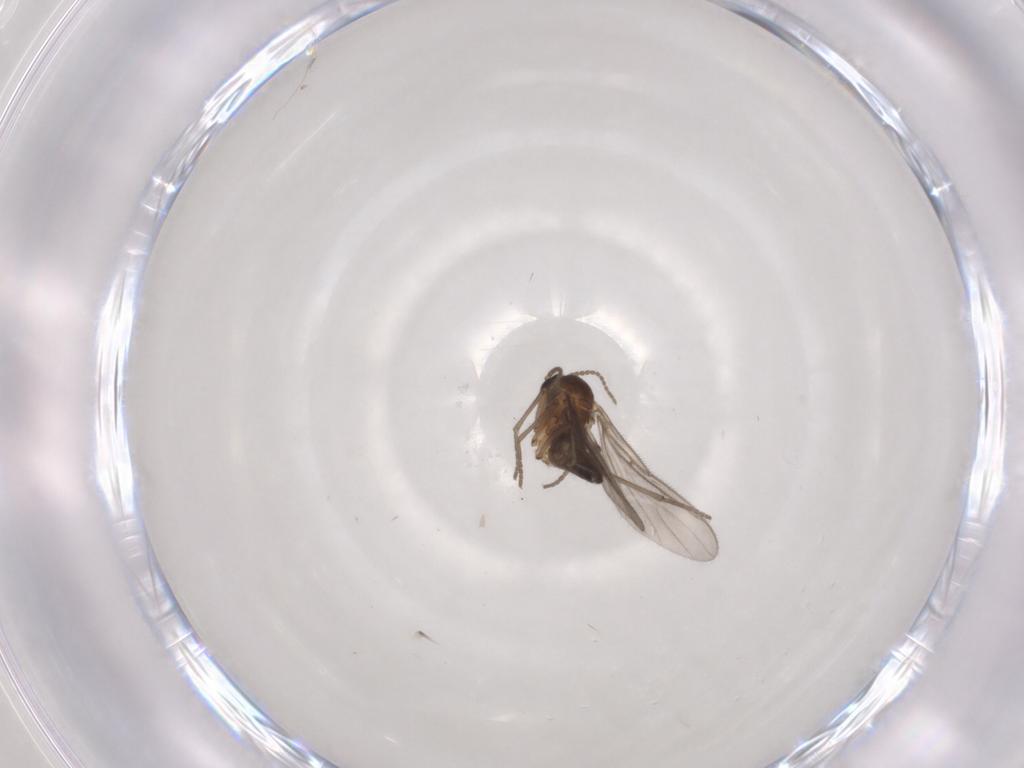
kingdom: Animalia
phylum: Arthropoda
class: Insecta
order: Diptera
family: Sciaridae
